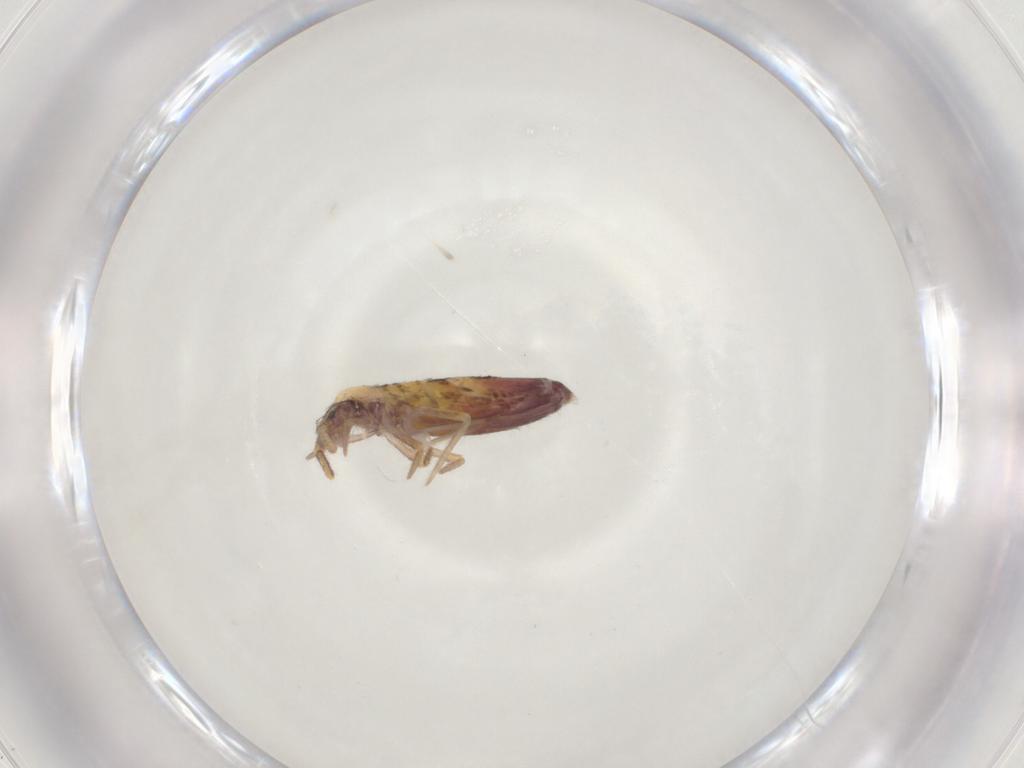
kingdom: Animalia
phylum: Arthropoda
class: Collembola
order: Entomobryomorpha
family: Entomobryidae
